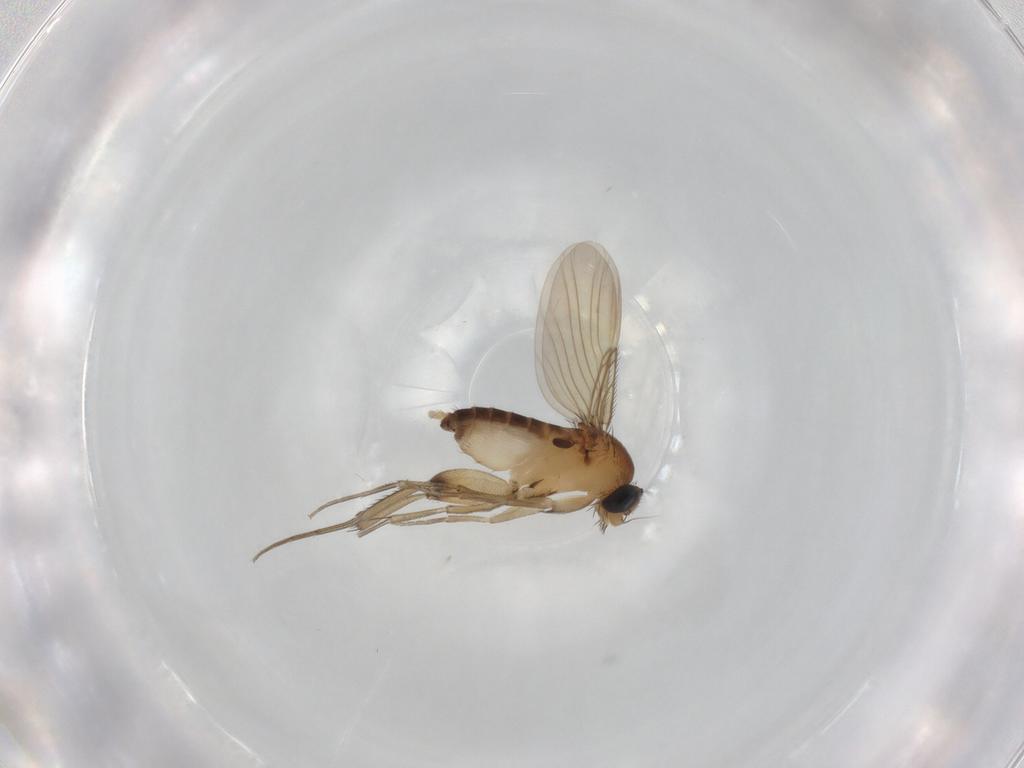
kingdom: Animalia
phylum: Arthropoda
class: Insecta
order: Diptera
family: Phoridae
